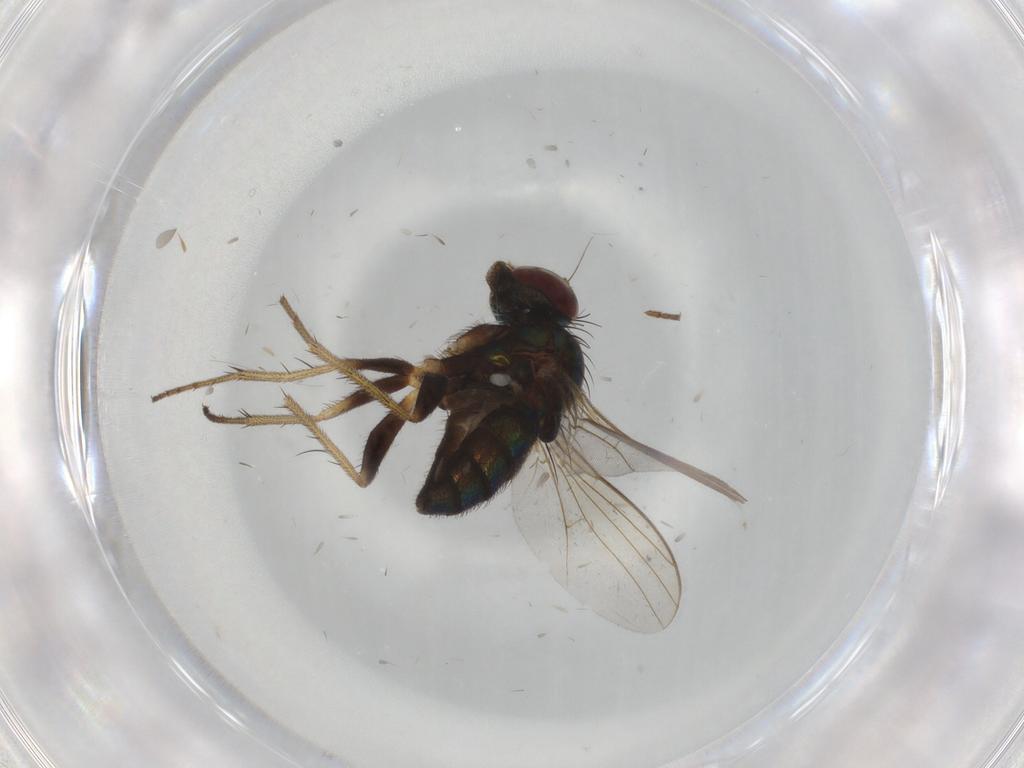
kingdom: Animalia
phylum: Arthropoda
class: Insecta
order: Diptera
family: Dolichopodidae
